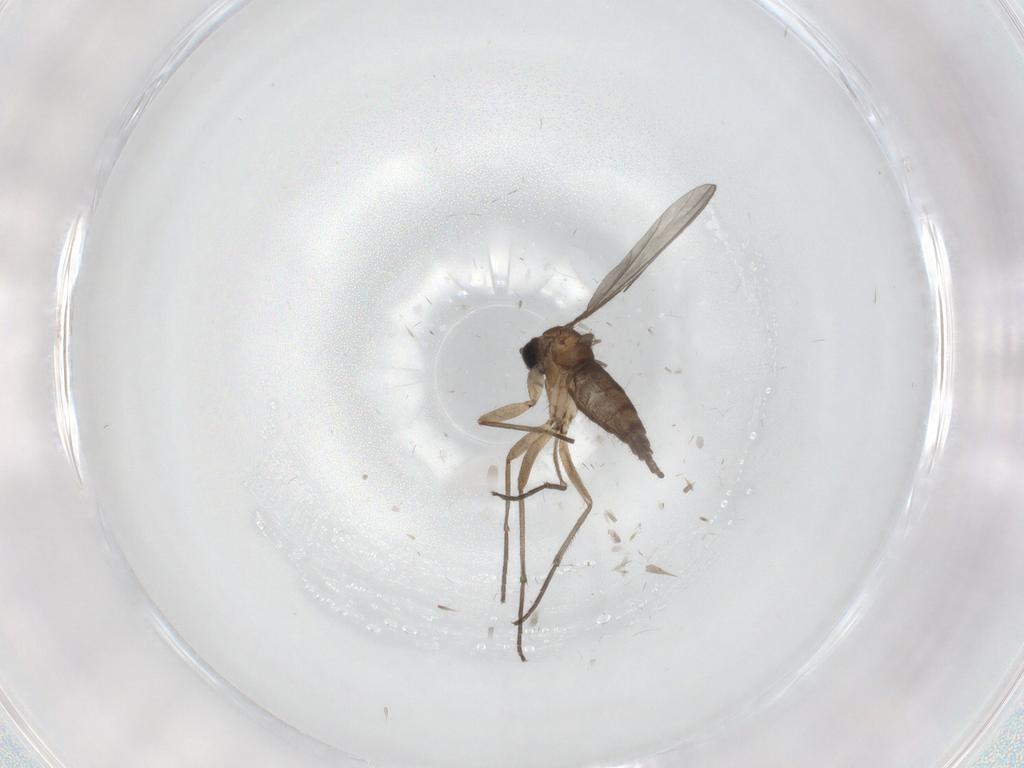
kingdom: Animalia
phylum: Arthropoda
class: Insecta
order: Diptera
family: Sciaridae
